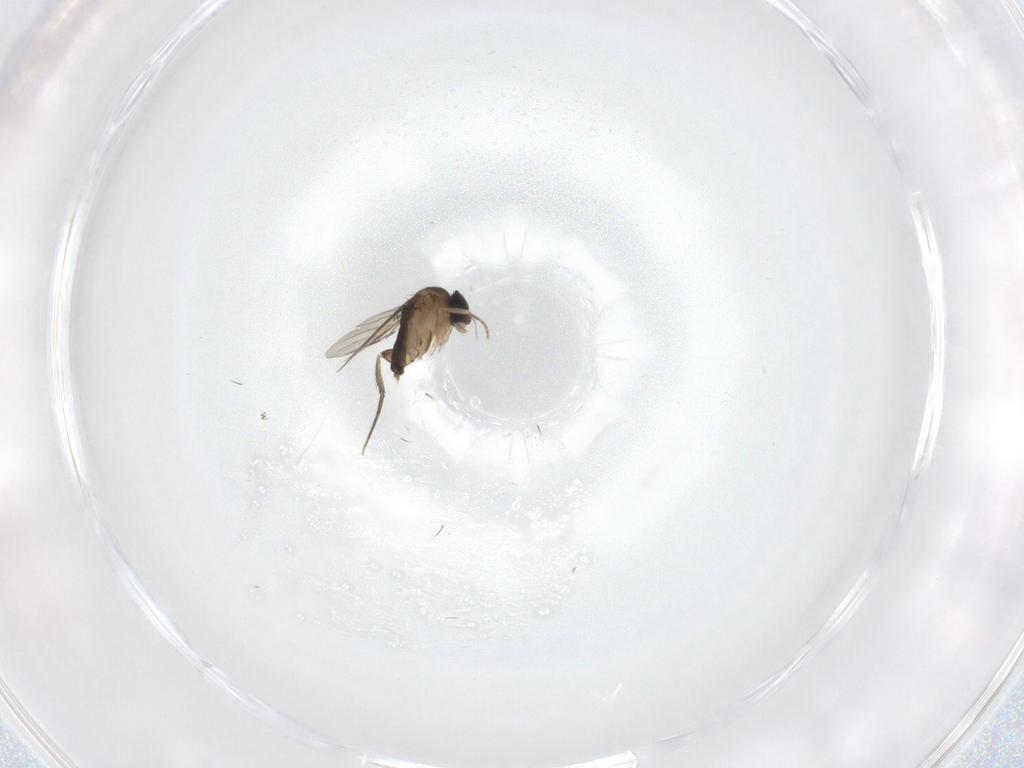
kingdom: Animalia
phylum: Arthropoda
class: Insecta
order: Diptera
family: Phoridae
